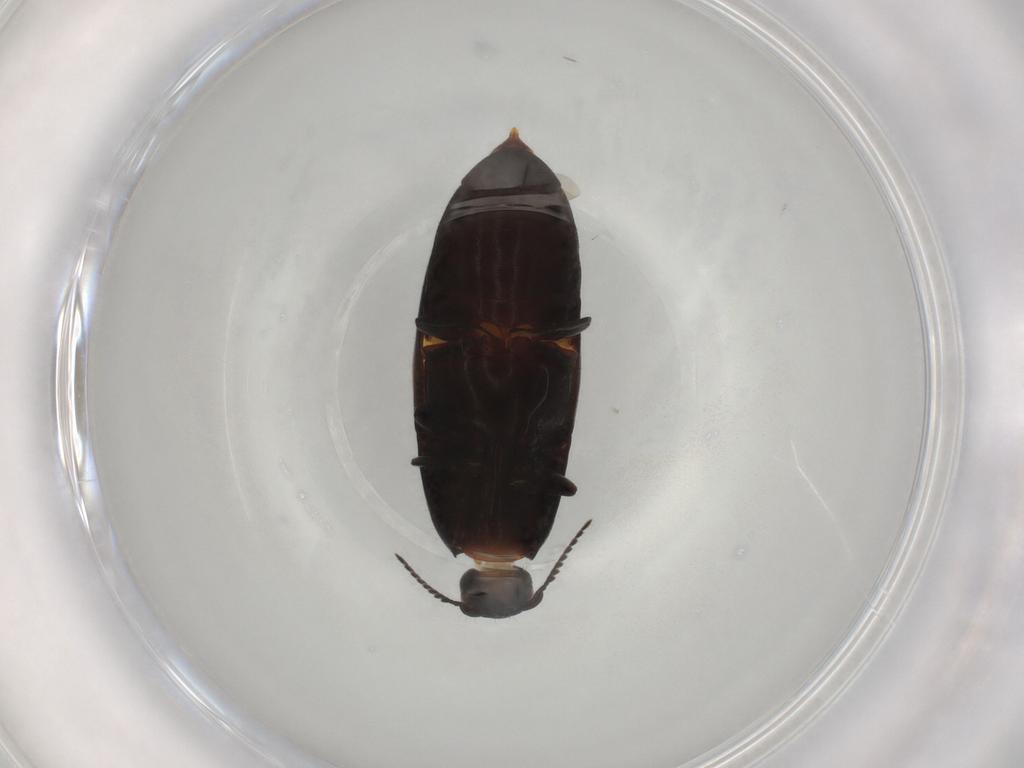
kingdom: Animalia
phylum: Arthropoda
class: Insecta
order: Coleoptera
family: Elateridae
